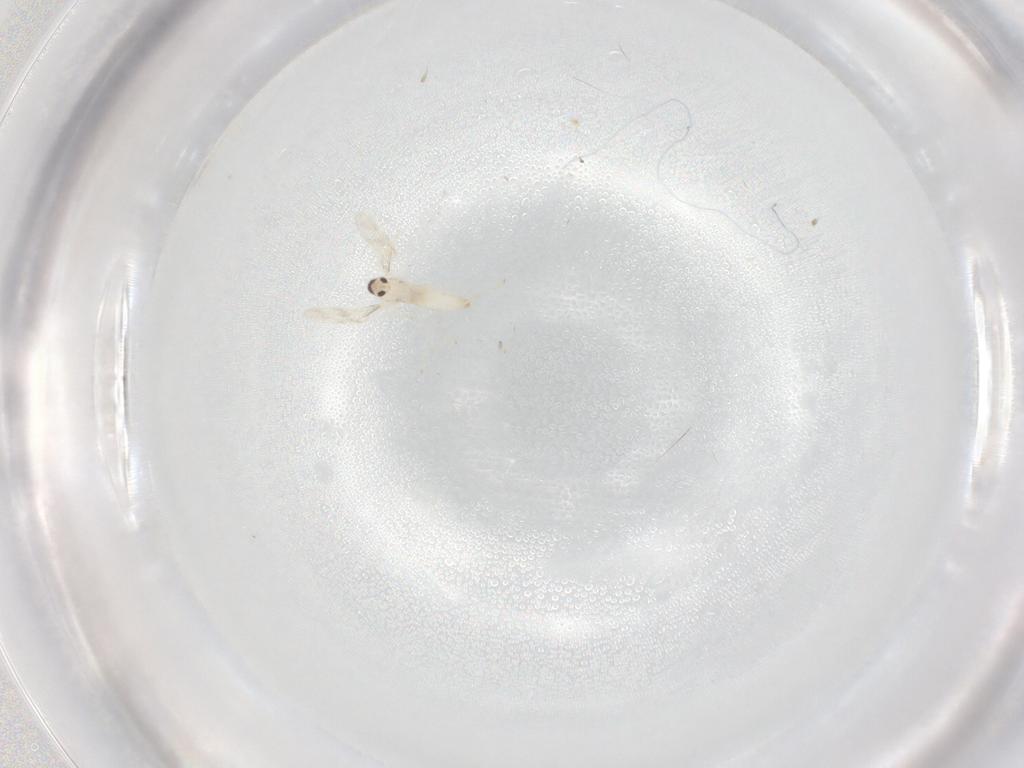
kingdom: Animalia
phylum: Arthropoda
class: Insecta
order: Diptera
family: Cecidomyiidae
